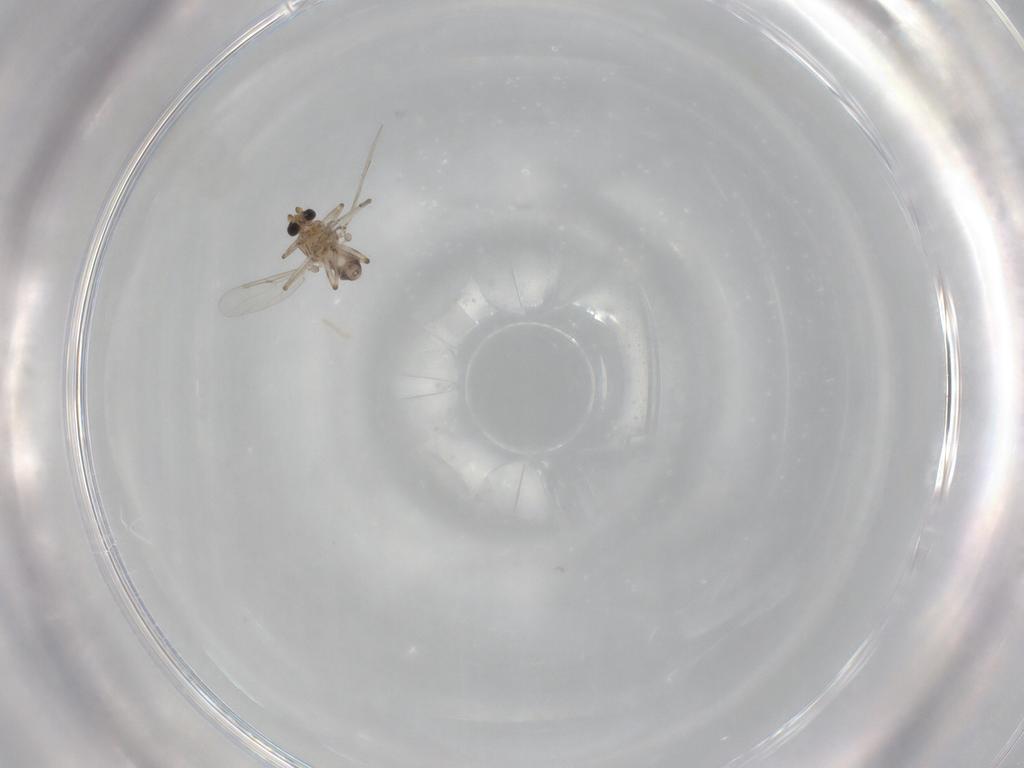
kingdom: Animalia
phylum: Arthropoda
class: Insecta
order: Diptera
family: Ceratopogonidae
